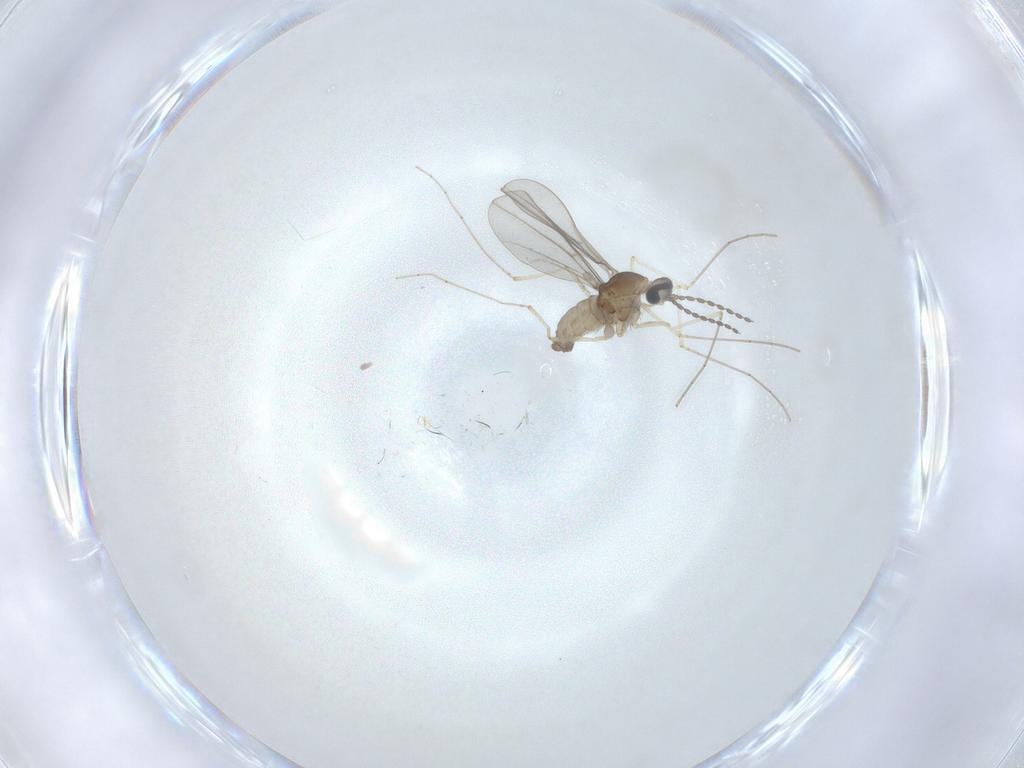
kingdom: Animalia
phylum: Arthropoda
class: Insecta
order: Diptera
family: Cecidomyiidae
